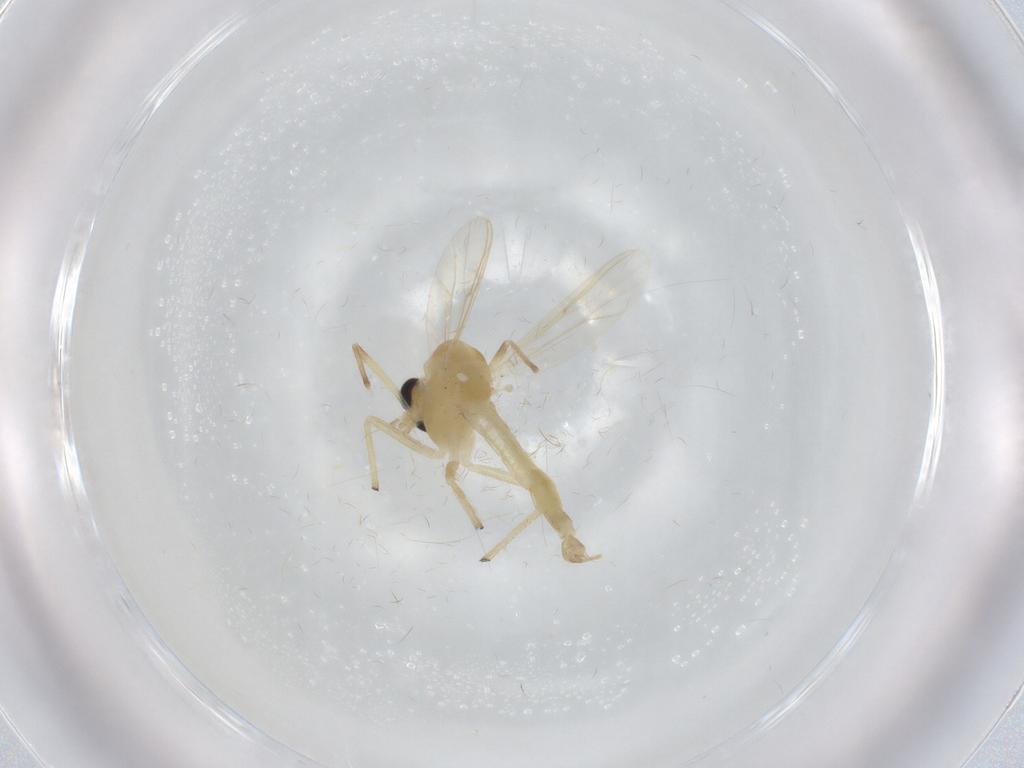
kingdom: Animalia
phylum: Arthropoda
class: Insecta
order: Diptera
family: Chironomidae
